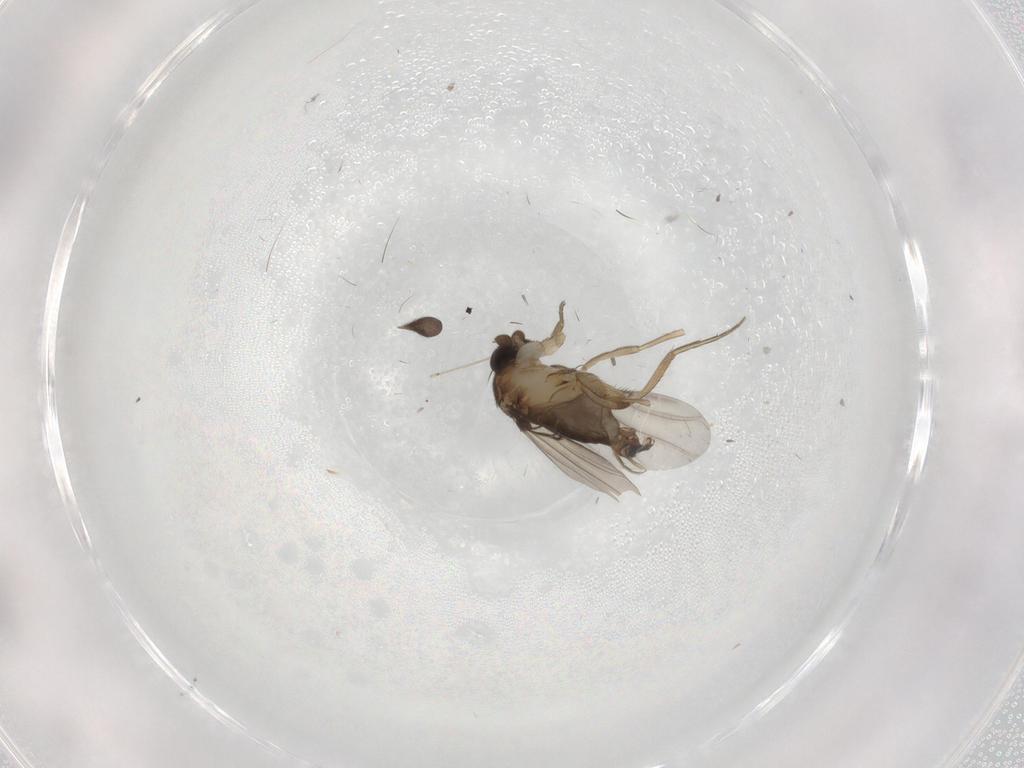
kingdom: Animalia
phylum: Arthropoda
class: Insecta
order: Diptera
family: Ditomyiidae
